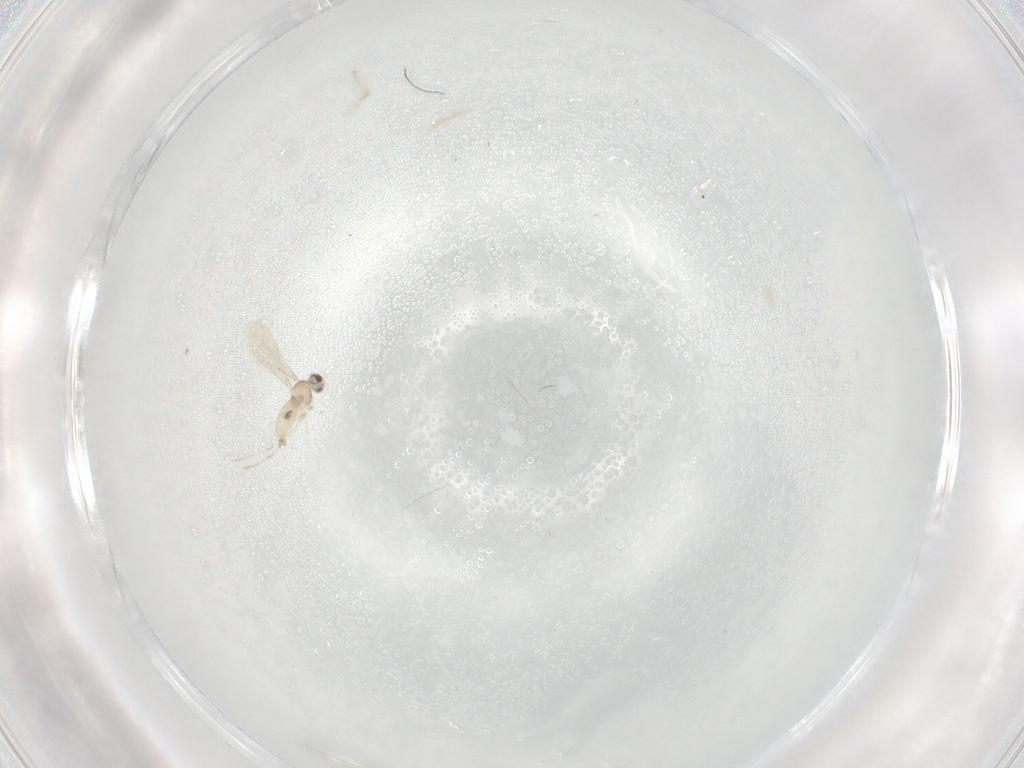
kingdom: Animalia
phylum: Arthropoda
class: Insecta
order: Diptera
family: Cecidomyiidae
